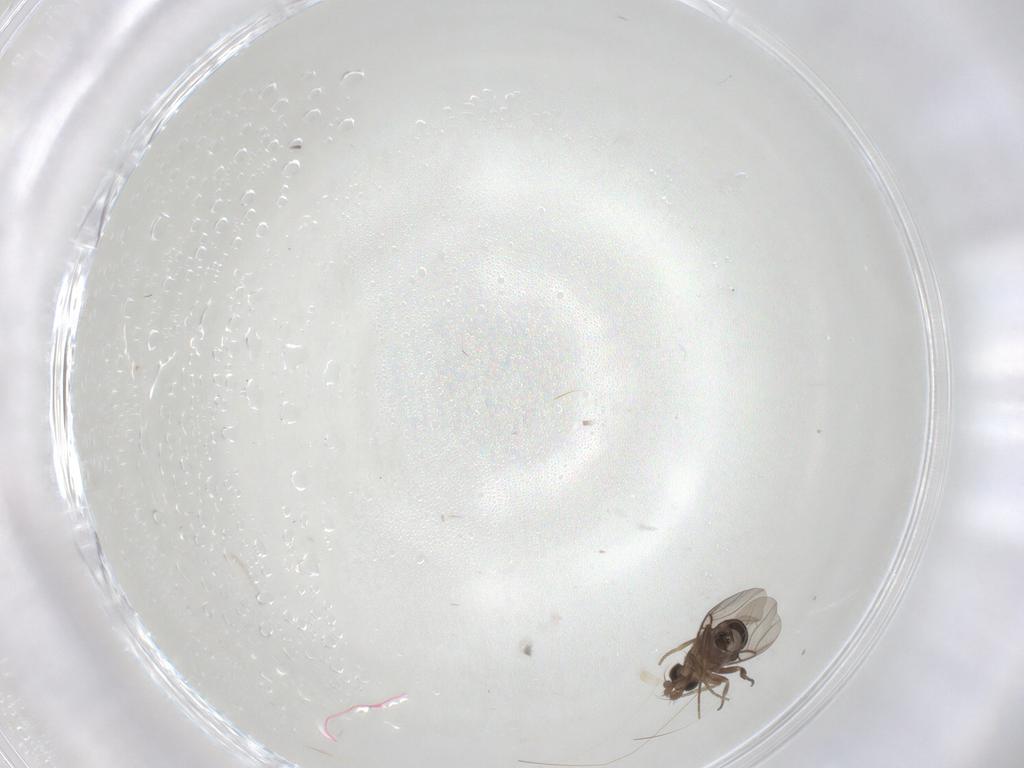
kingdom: Animalia
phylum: Arthropoda
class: Insecta
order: Diptera
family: Phoridae
